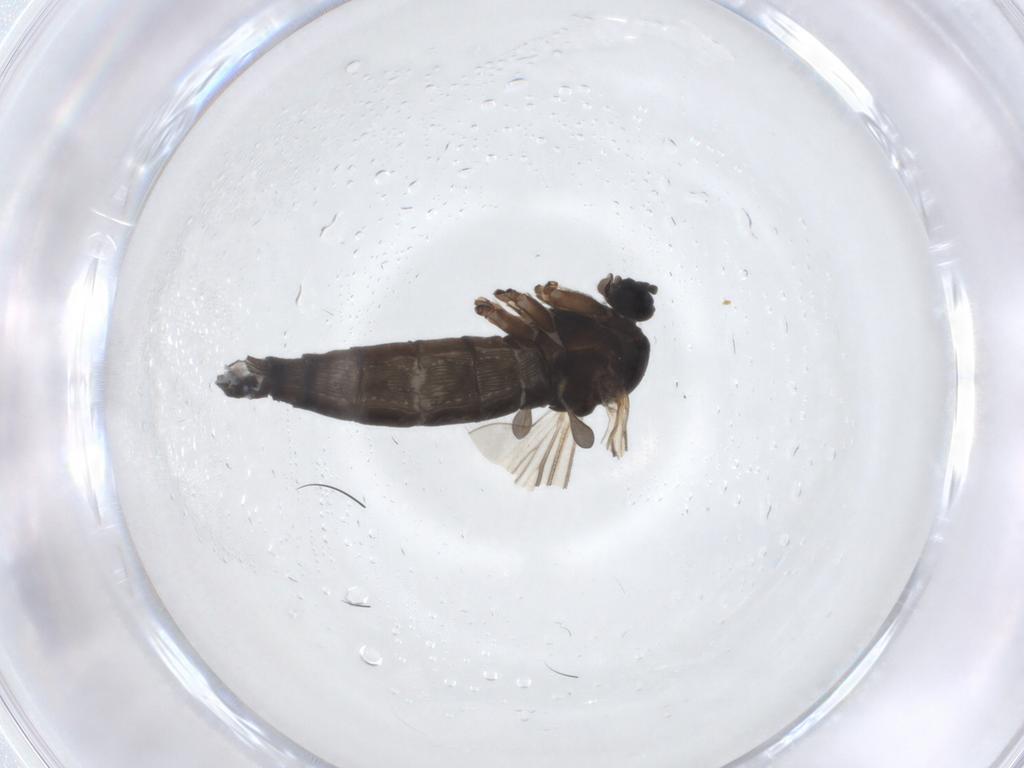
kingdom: Animalia
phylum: Arthropoda
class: Insecta
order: Diptera
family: Sciaridae
